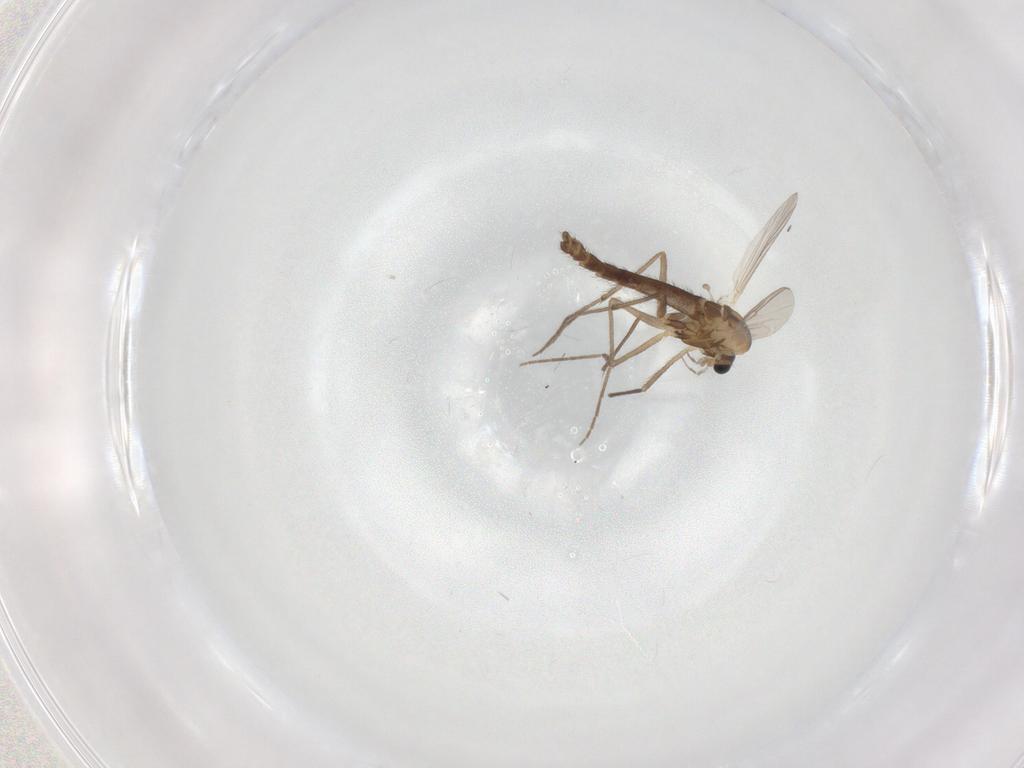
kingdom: Animalia
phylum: Arthropoda
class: Insecta
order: Diptera
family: Chironomidae
